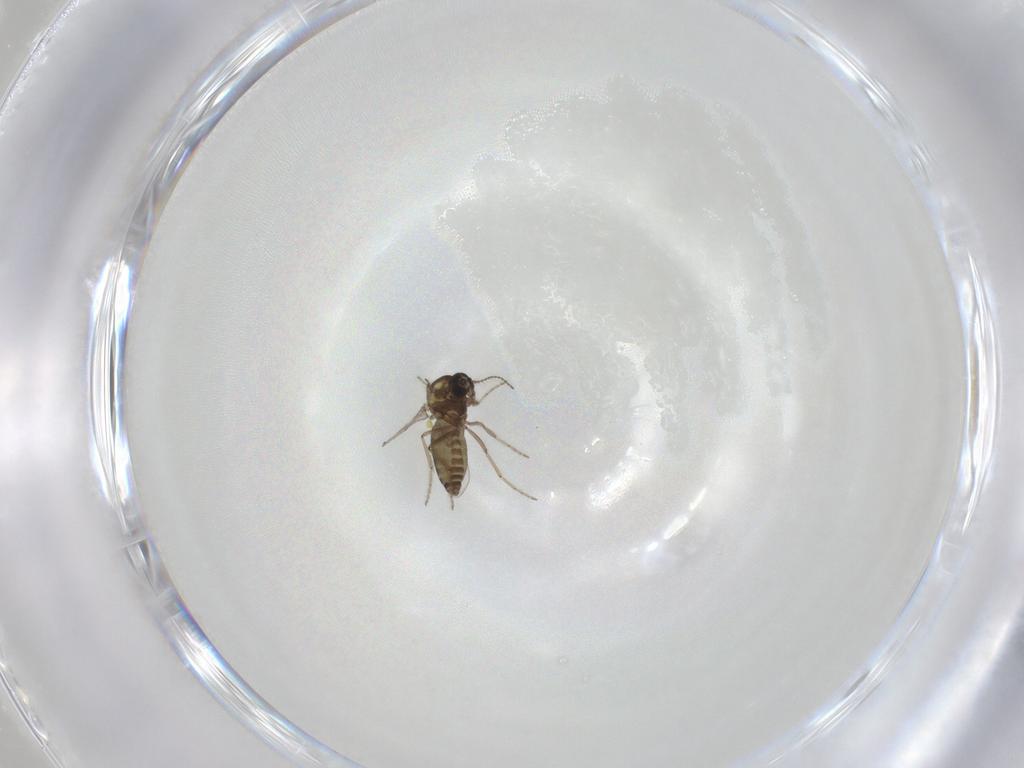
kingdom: Animalia
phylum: Arthropoda
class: Insecta
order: Diptera
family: Ceratopogonidae
